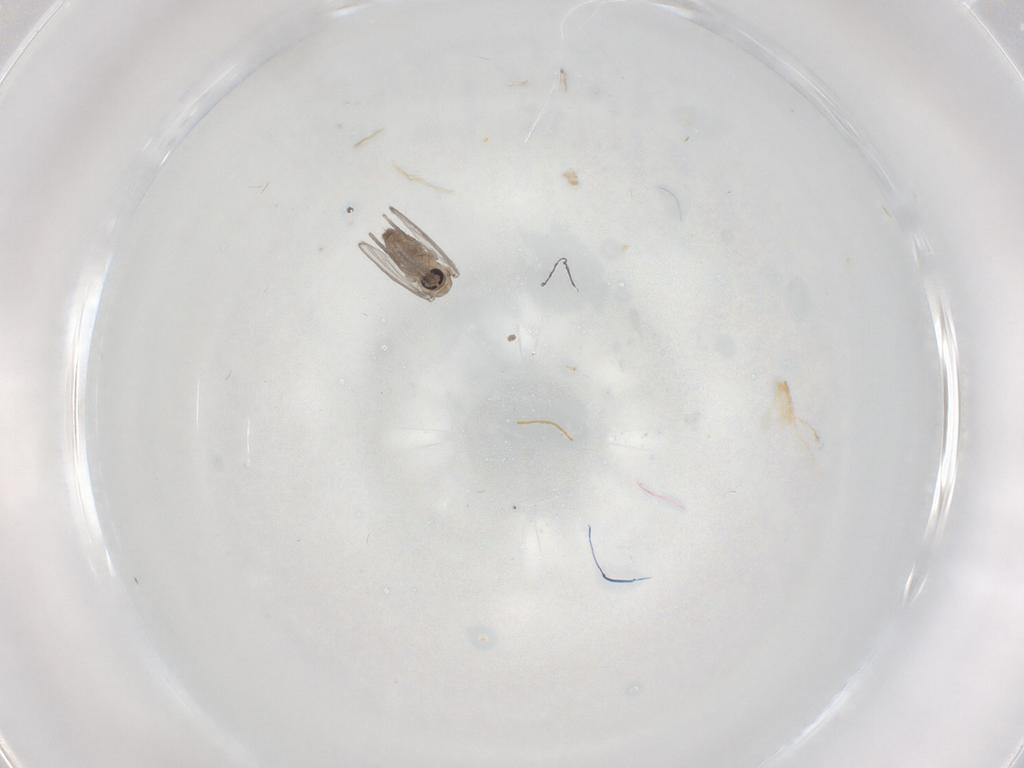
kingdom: Animalia
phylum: Arthropoda
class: Insecta
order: Diptera
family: Psychodidae
